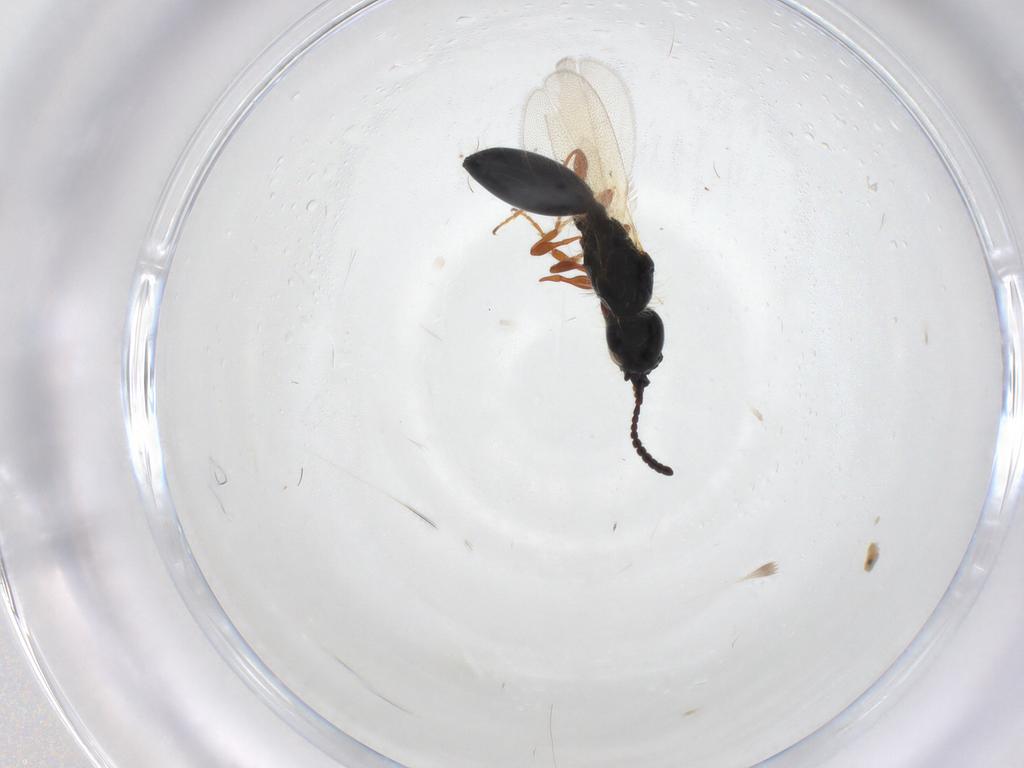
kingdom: Animalia
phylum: Arthropoda
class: Insecta
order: Hymenoptera
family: Diapriidae
